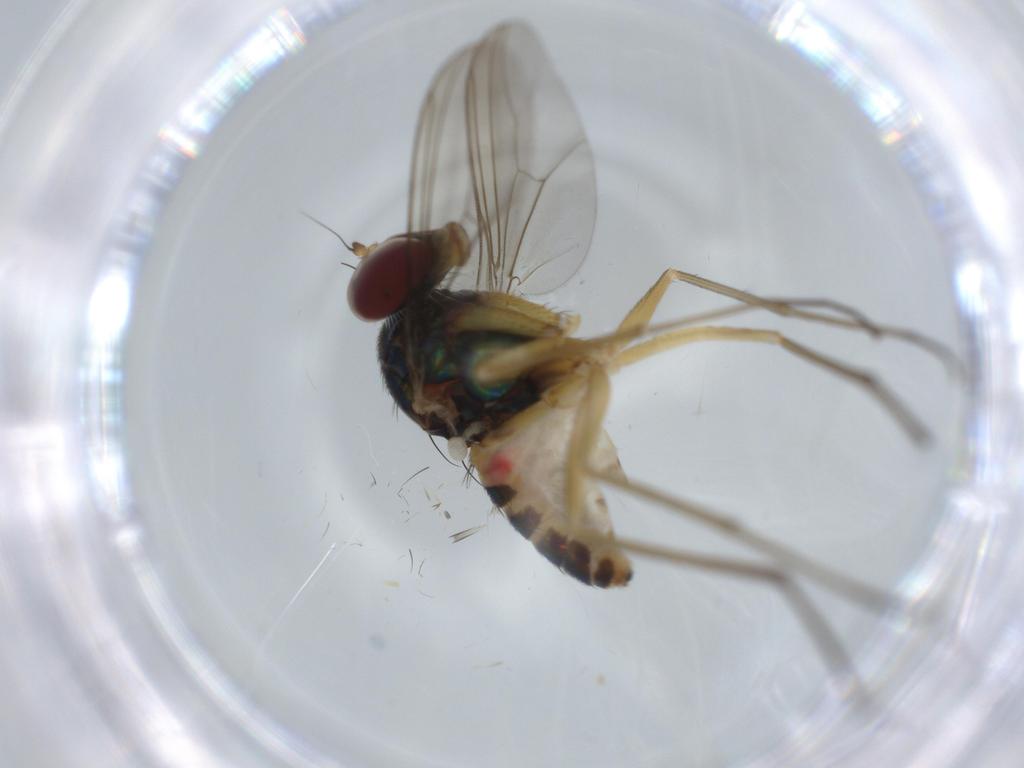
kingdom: Animalia
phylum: Arthropoda
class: Insecta
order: Diptera
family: Dolichopodidae
